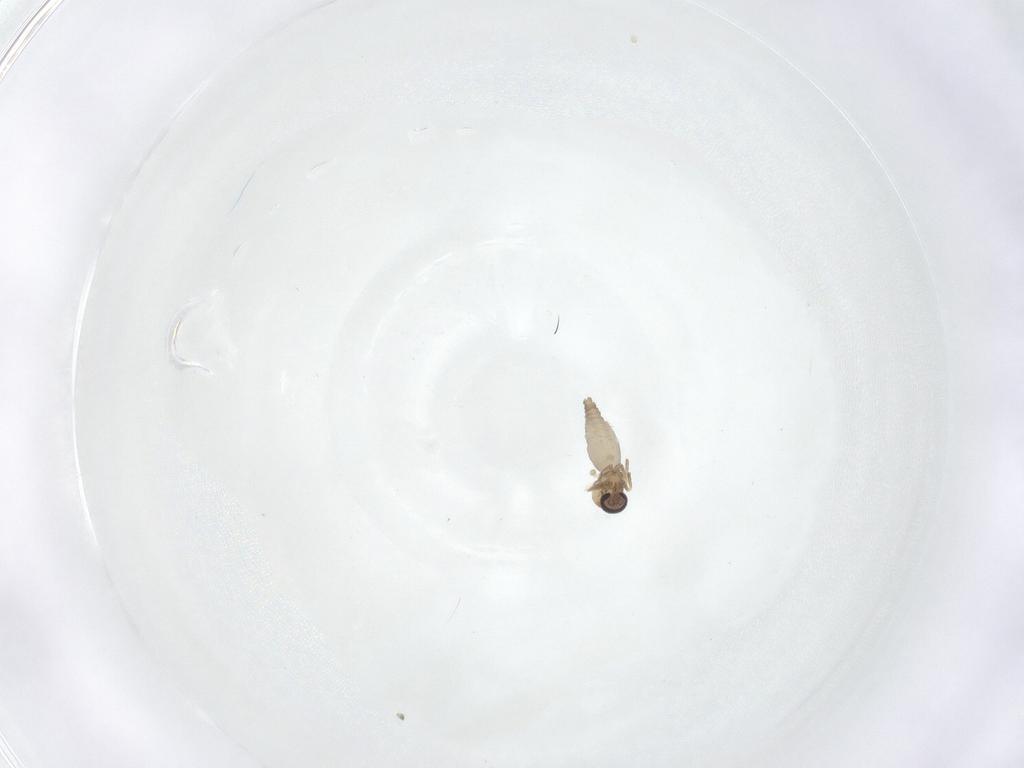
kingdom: Animalia
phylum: Arthropoda
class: Insecta
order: Diptera
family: Ceratopogonidae
